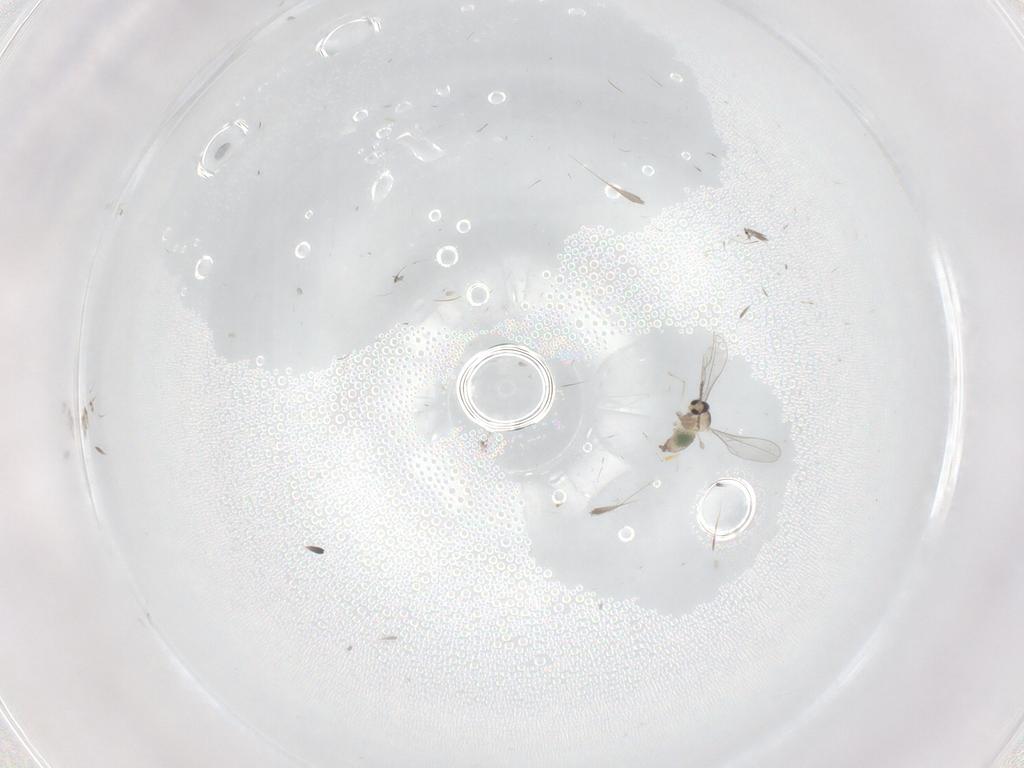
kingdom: Animalia
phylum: Arthropoda
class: Insecta
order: Diptera
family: Cecidomyiidae
